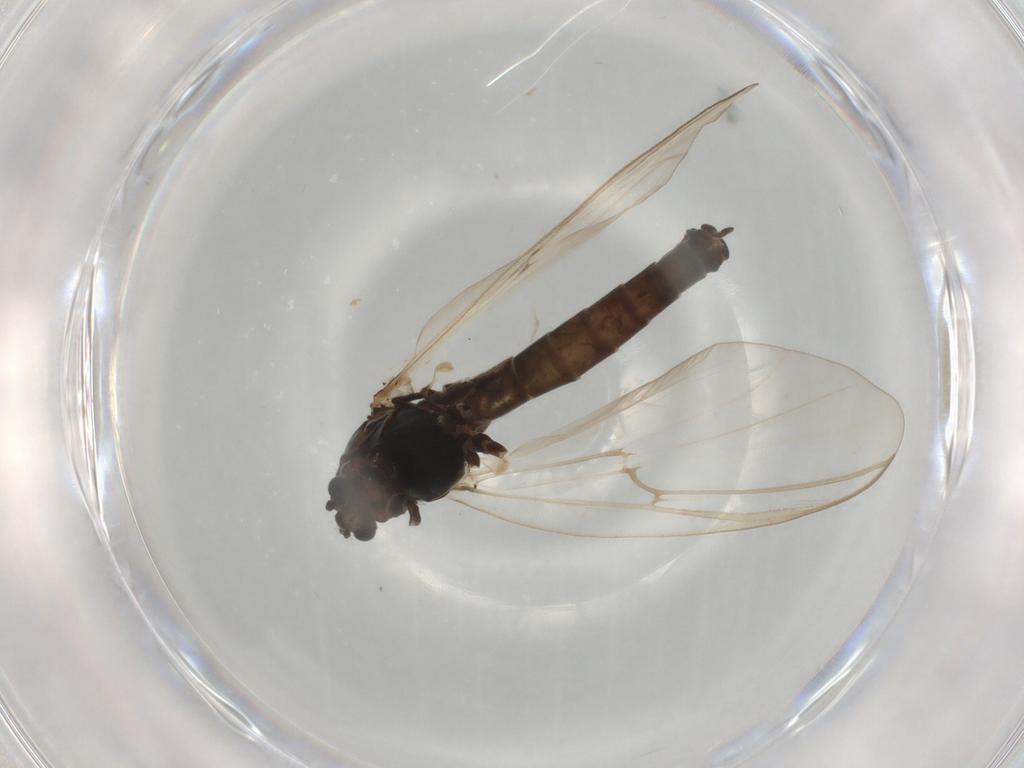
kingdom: Animalia
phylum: Arthropoda
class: Insecta
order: Diptera
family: Chironomidae
